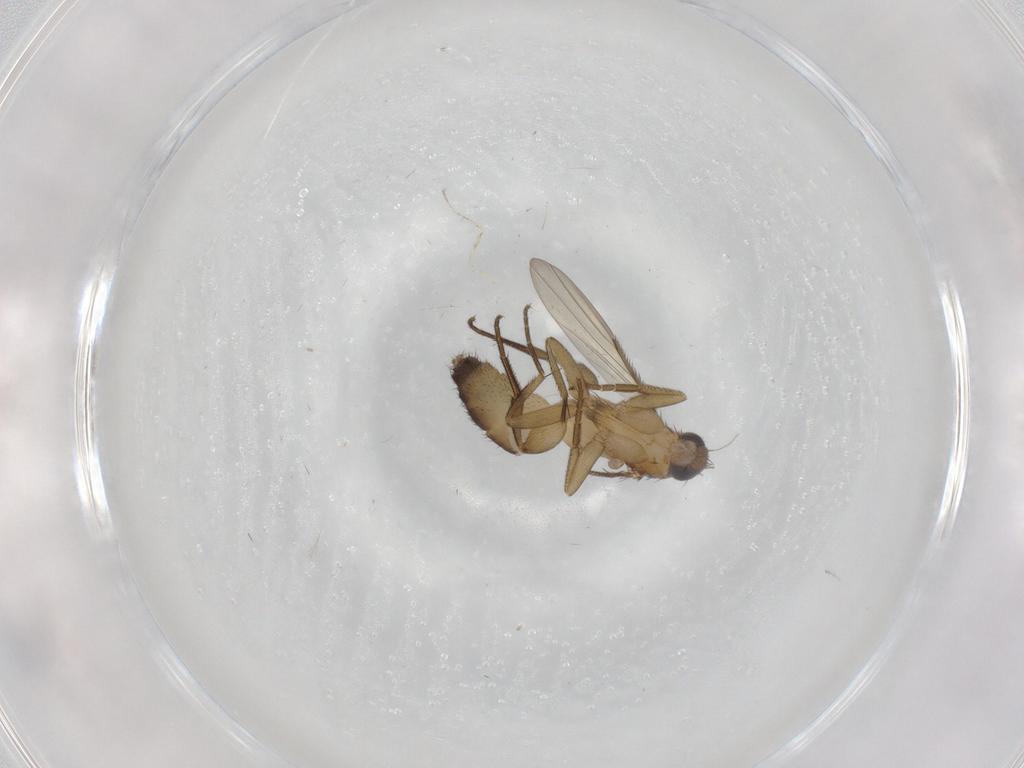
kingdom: Animalia
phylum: Arthropoda
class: Insecta
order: Diptera
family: Phoridae
